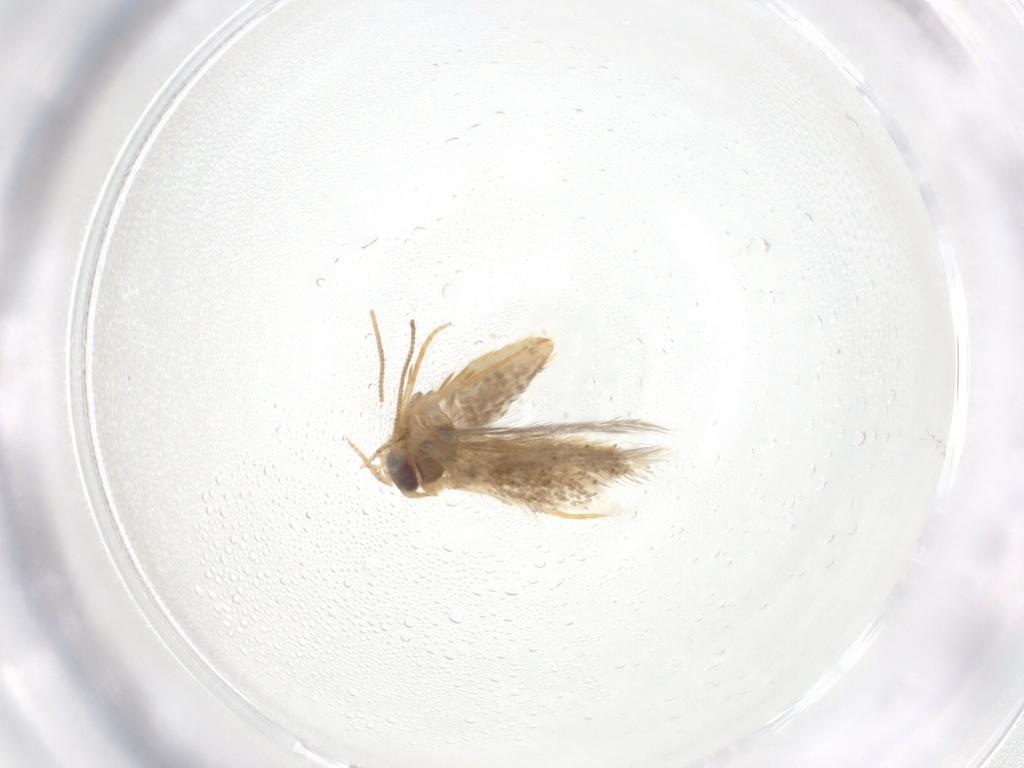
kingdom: Animalia
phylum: Arthropoda
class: Insecta
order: Lepidoptera
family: Nepticulidae
